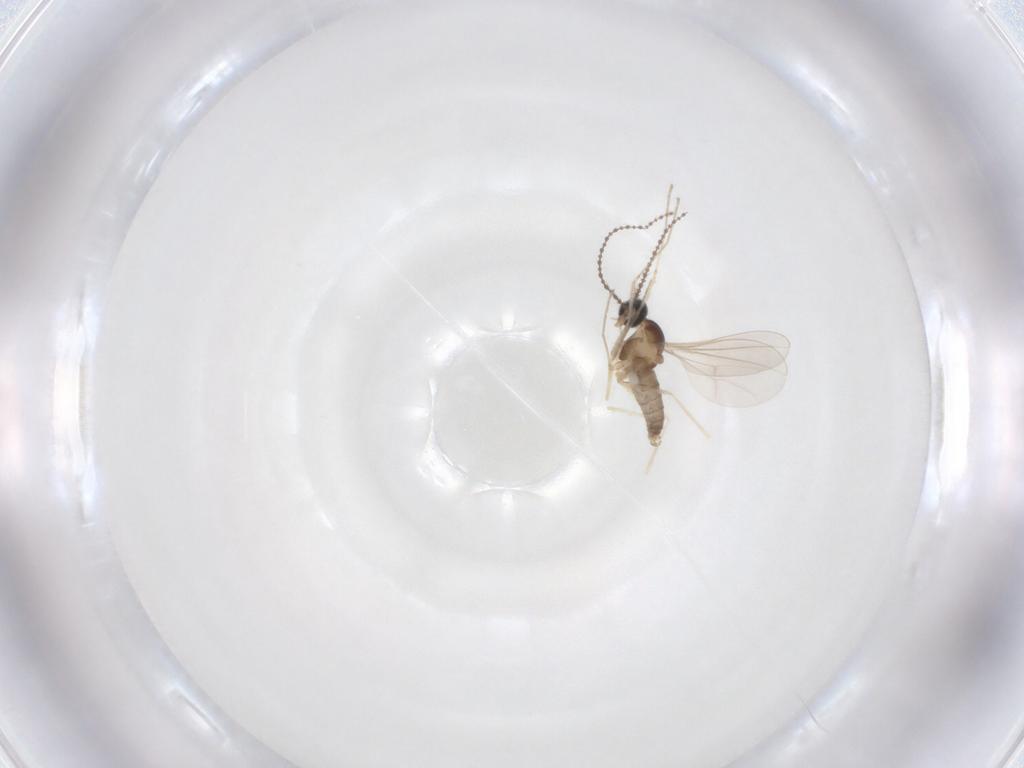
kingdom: Animalia
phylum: Arthropoda
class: Insecta
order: Diptera
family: Cecidomyiidae
